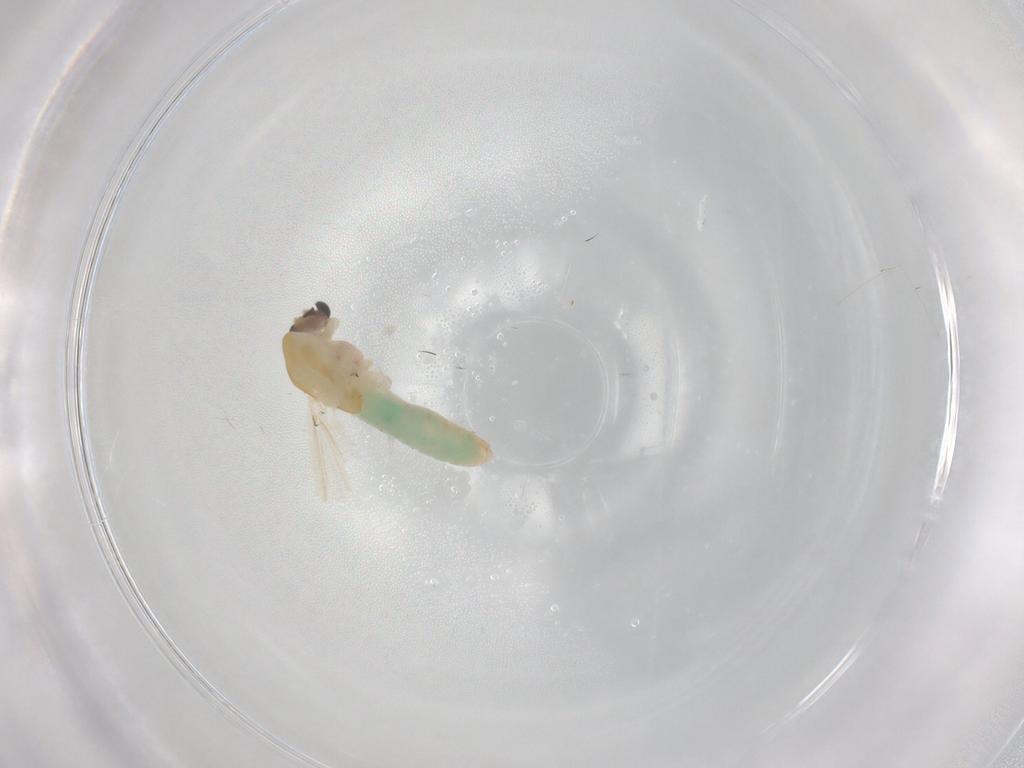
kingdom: Animalia
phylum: Arthropoda
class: Insecta
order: Diptera
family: Chironomidae
